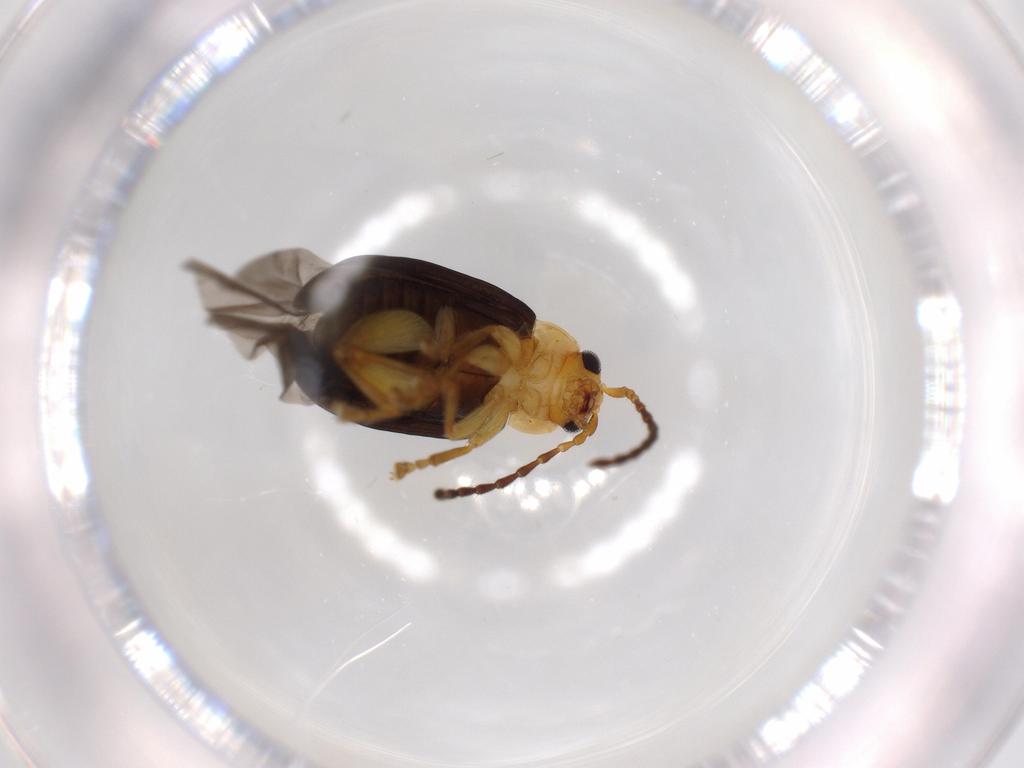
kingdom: Animalia
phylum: Arthropoda
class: Insecta
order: Coleoptera
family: Chrysomelidae
